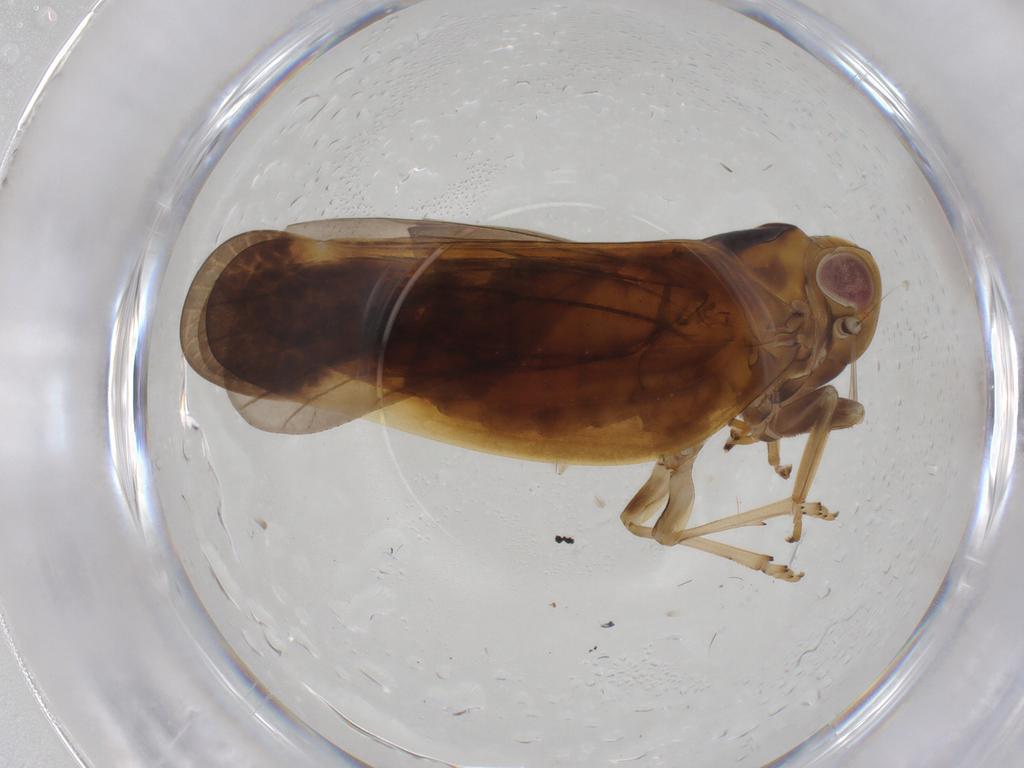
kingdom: Animalia
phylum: Arthropoda
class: Insecta
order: Hemiptera
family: Nogodinidae
